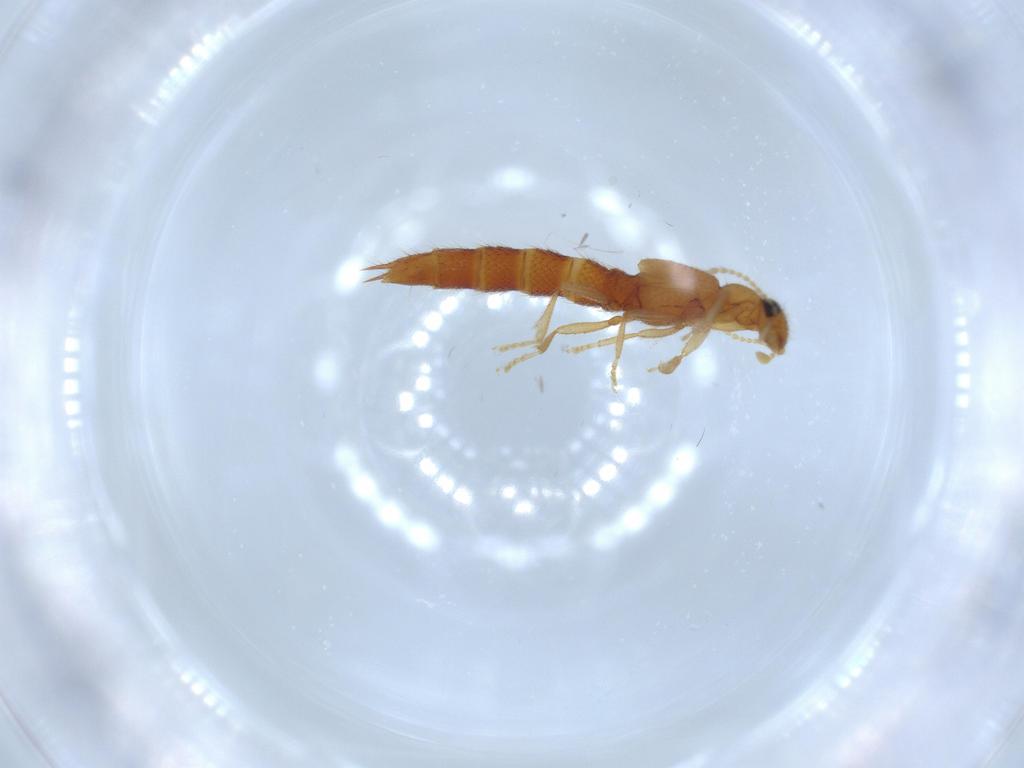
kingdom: Animalia
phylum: Arthropoda
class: Insecta
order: Coleoptera
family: Staphylinidae
